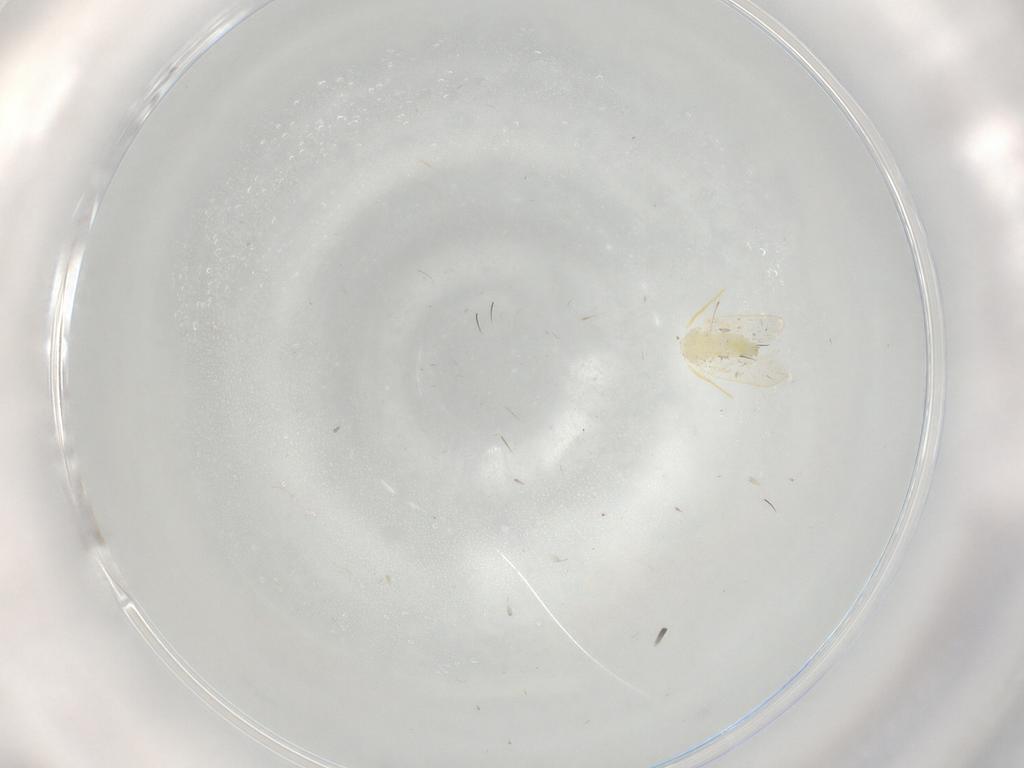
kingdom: Animalia
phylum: Arthropoda
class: Insecta
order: Hemiptera
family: Aleyrodidae
